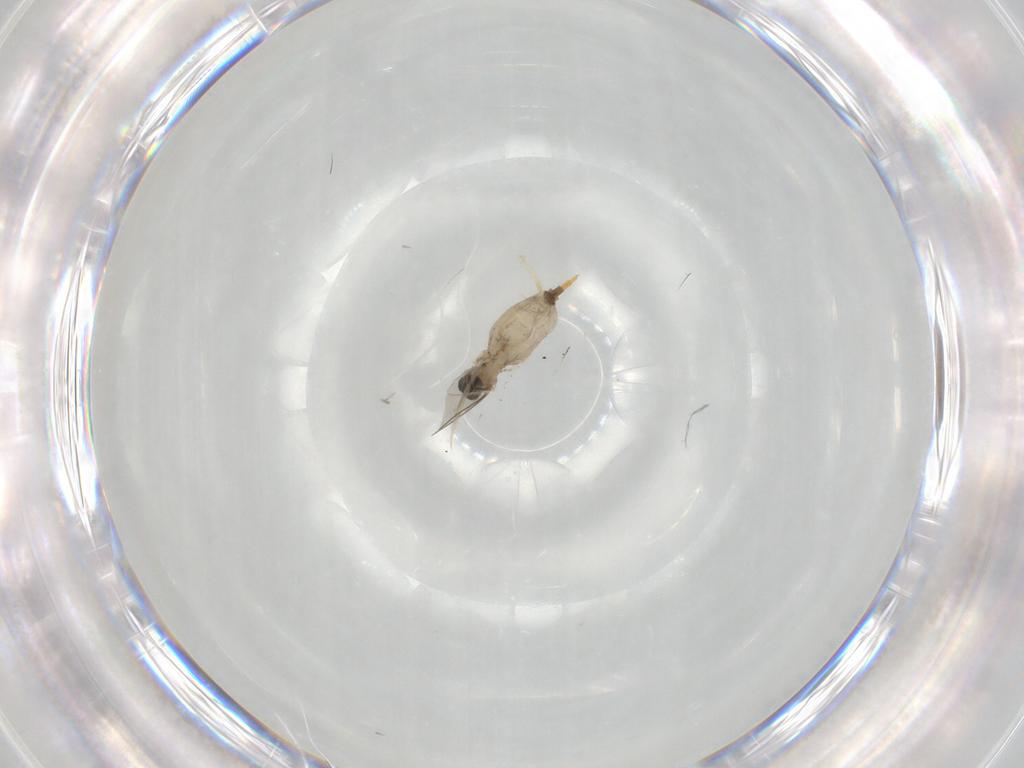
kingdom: Animalia
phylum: Arthropoda
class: Insecta
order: Diptera
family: Cecidomyiidae
